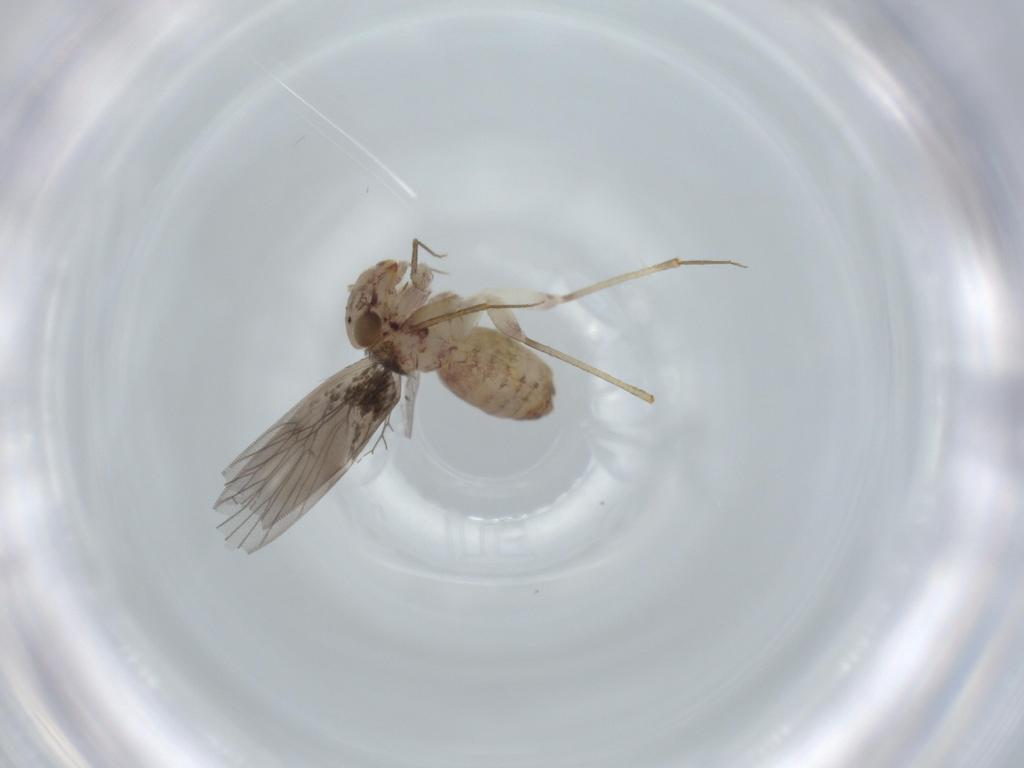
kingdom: Animalia
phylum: Arthropoda
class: Insecta
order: Psocodea
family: Lepidopsocidae
